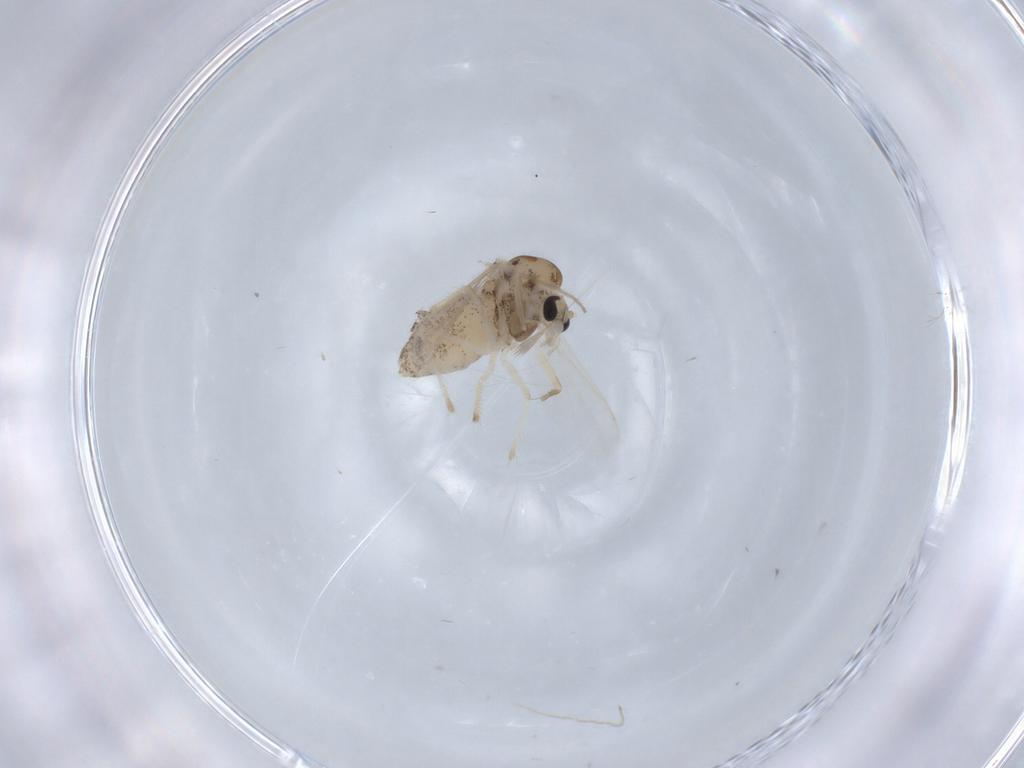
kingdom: Animalia
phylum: Arthropoda
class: Insecta
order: Diptera
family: Chironomidae
